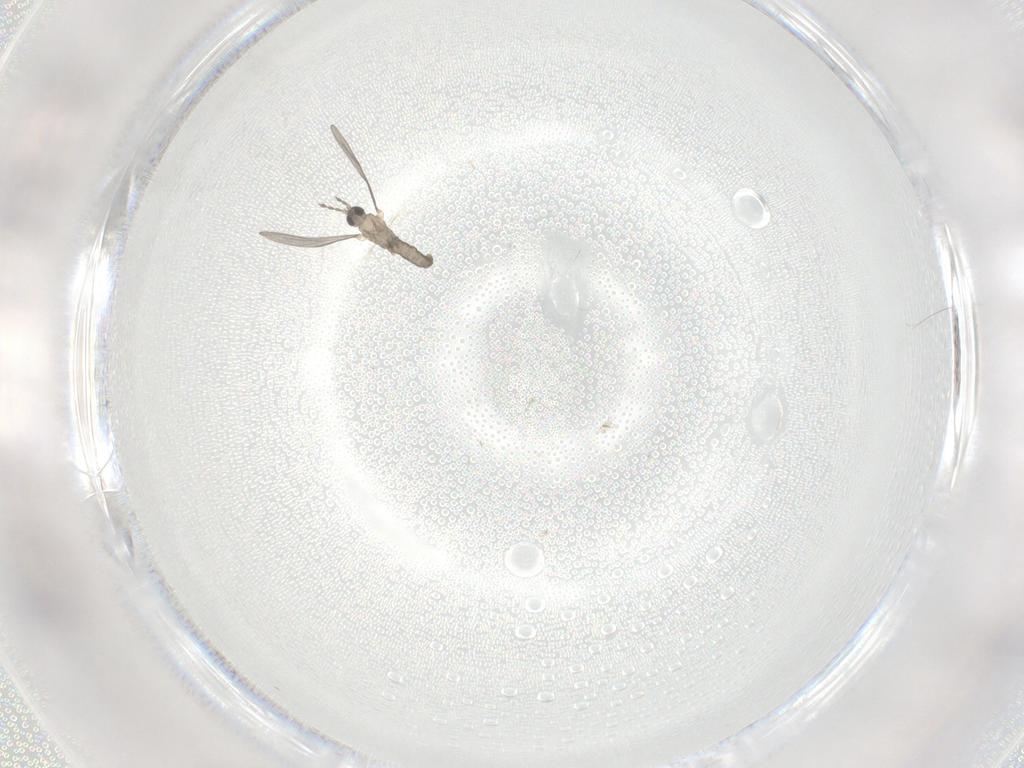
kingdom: Animalia
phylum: Arthropoda
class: Insecta
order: Diptera
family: Cecidomyiidae
